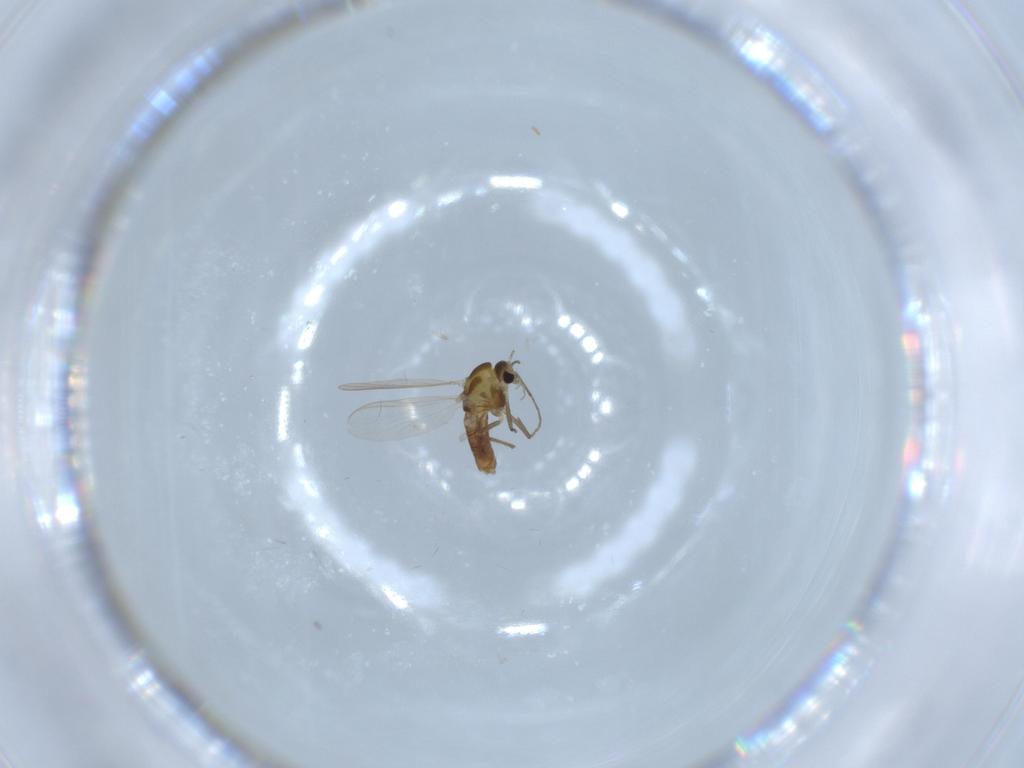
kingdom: Animalia
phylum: Arthropoda
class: Insecta
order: Diptera
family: Chironomidae
